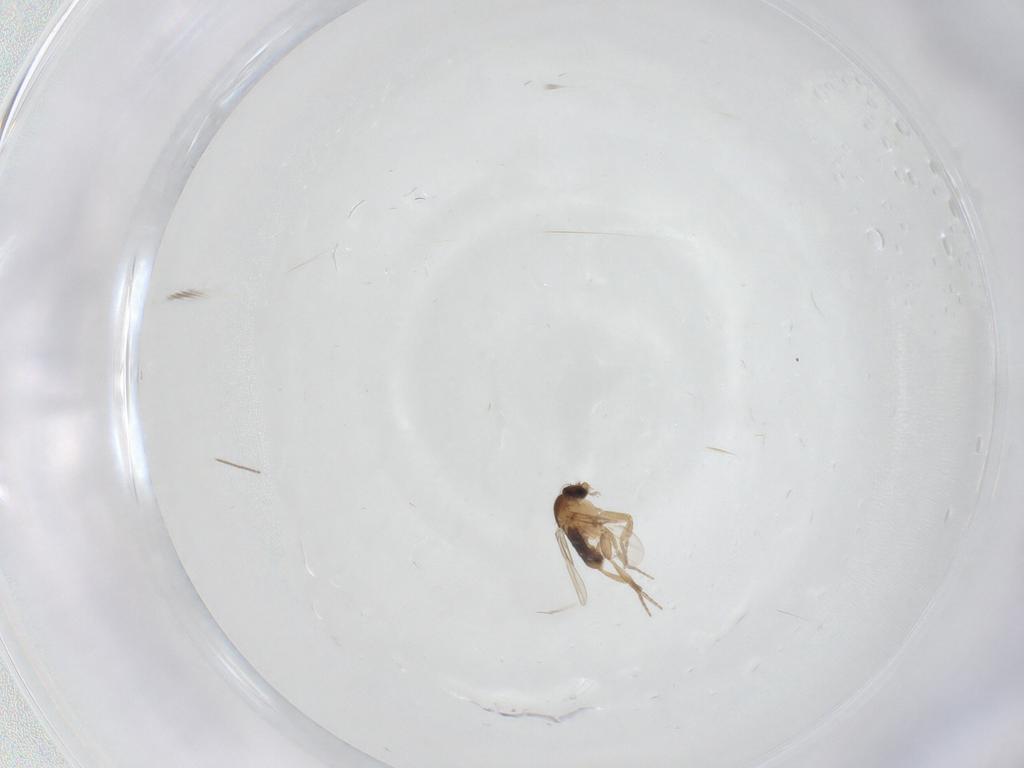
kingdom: Animalia
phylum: Arthropoda
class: Insecta
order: Diptera
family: Phoridae
